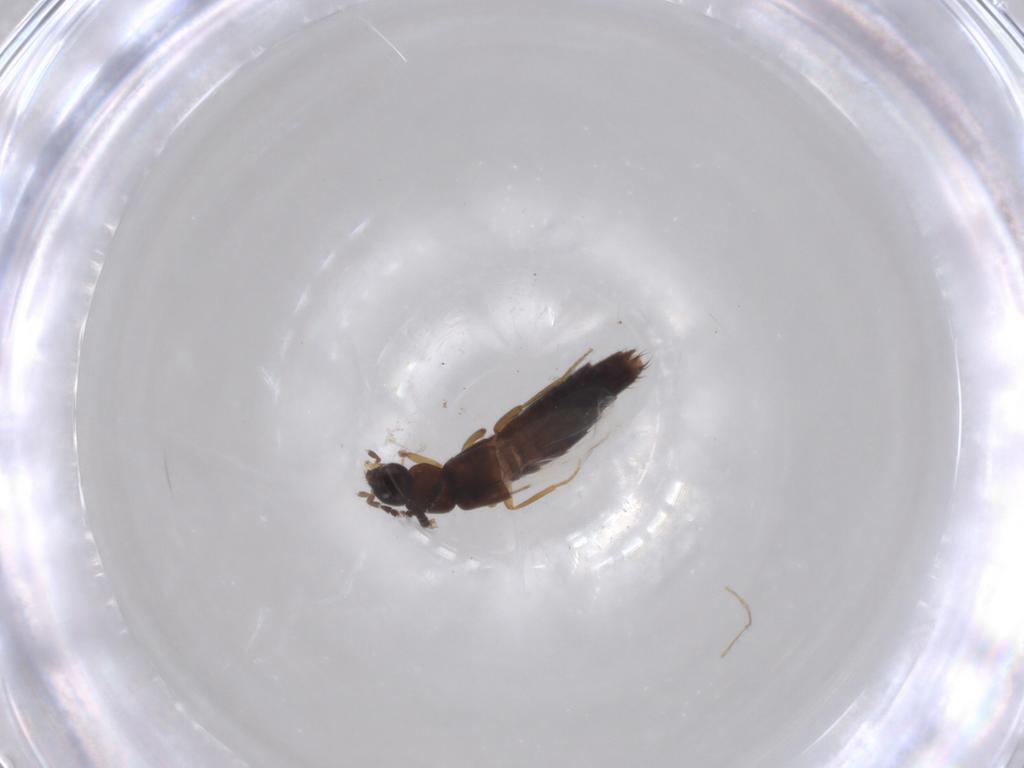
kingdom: Animalia
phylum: Arthropoda
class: Insecta
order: Coleoptera
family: Staphylinidae
